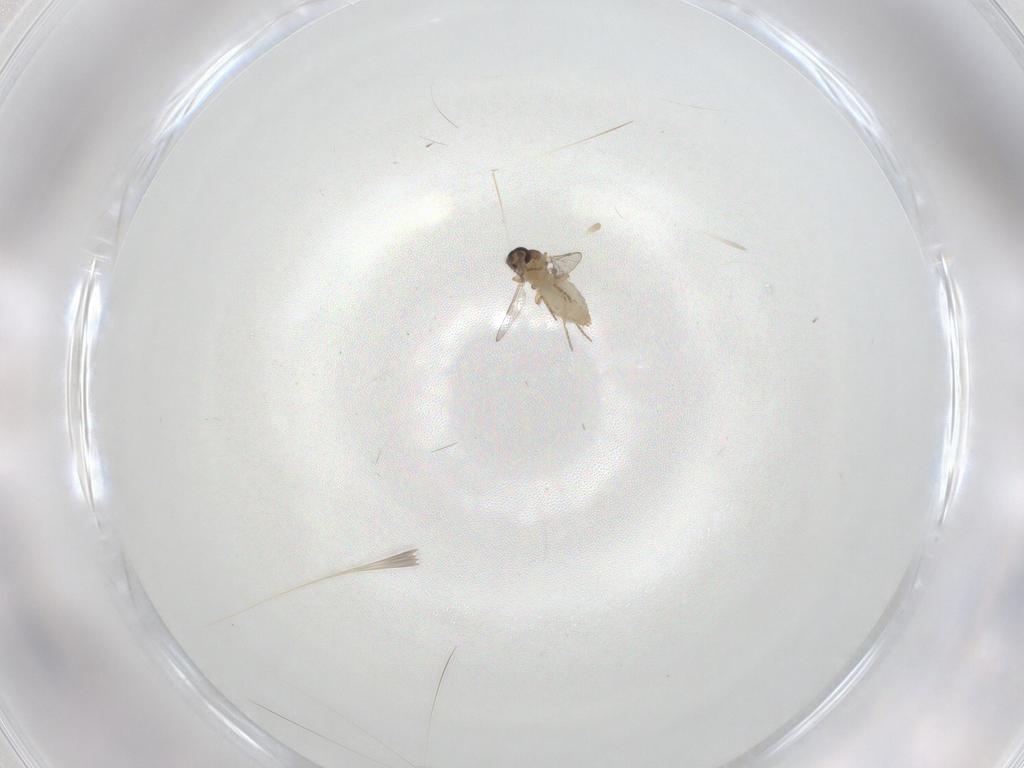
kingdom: Animalia
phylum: Arthropoda
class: Insecta
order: Diptera
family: Ceratopogonidae
